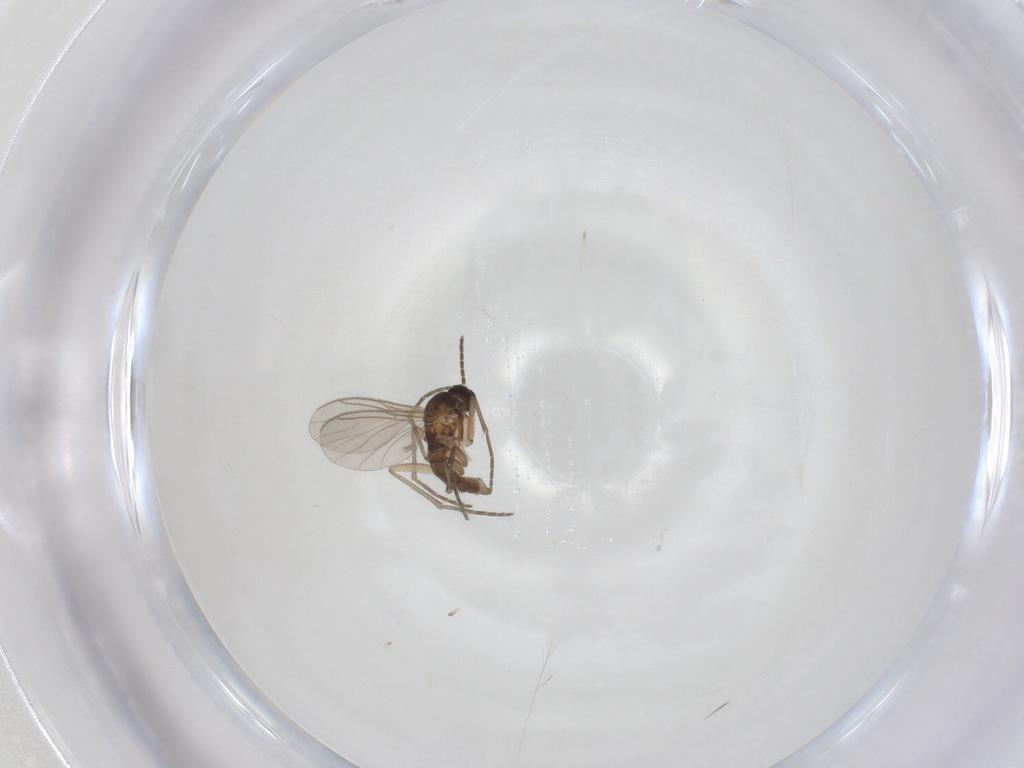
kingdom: Animalia
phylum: Arthropoda
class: Insecta
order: Diptera
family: Sciaridae
